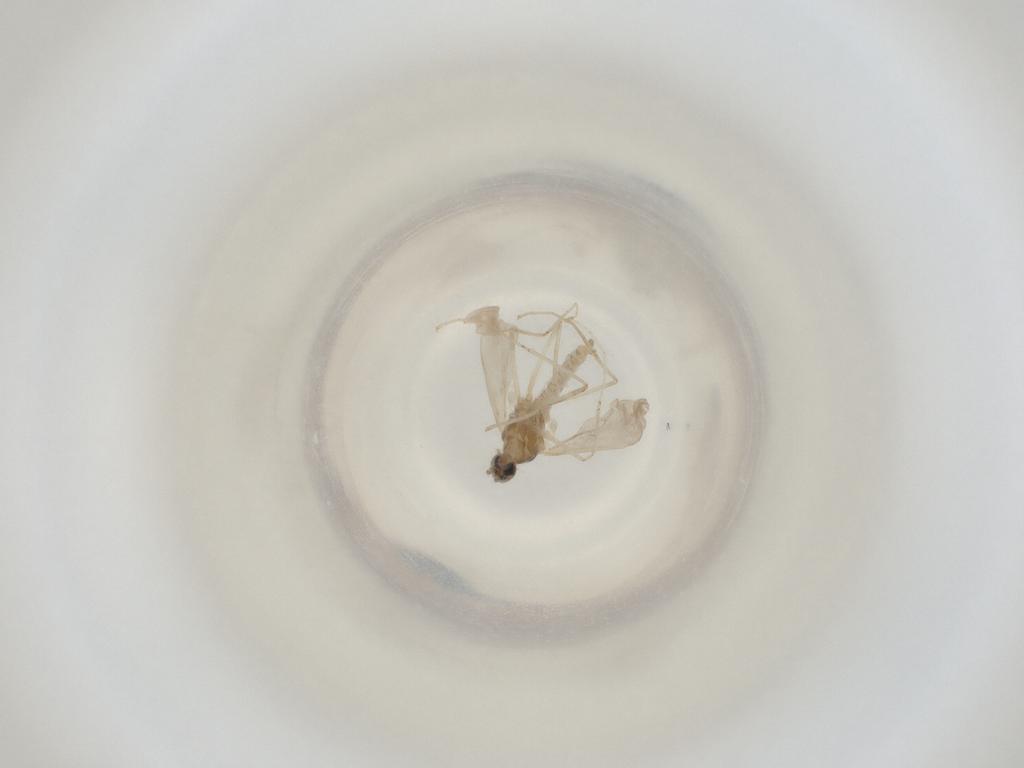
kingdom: Animalia
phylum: Arthropoda
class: Insecta
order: Diptera
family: Cecidomyiidae
